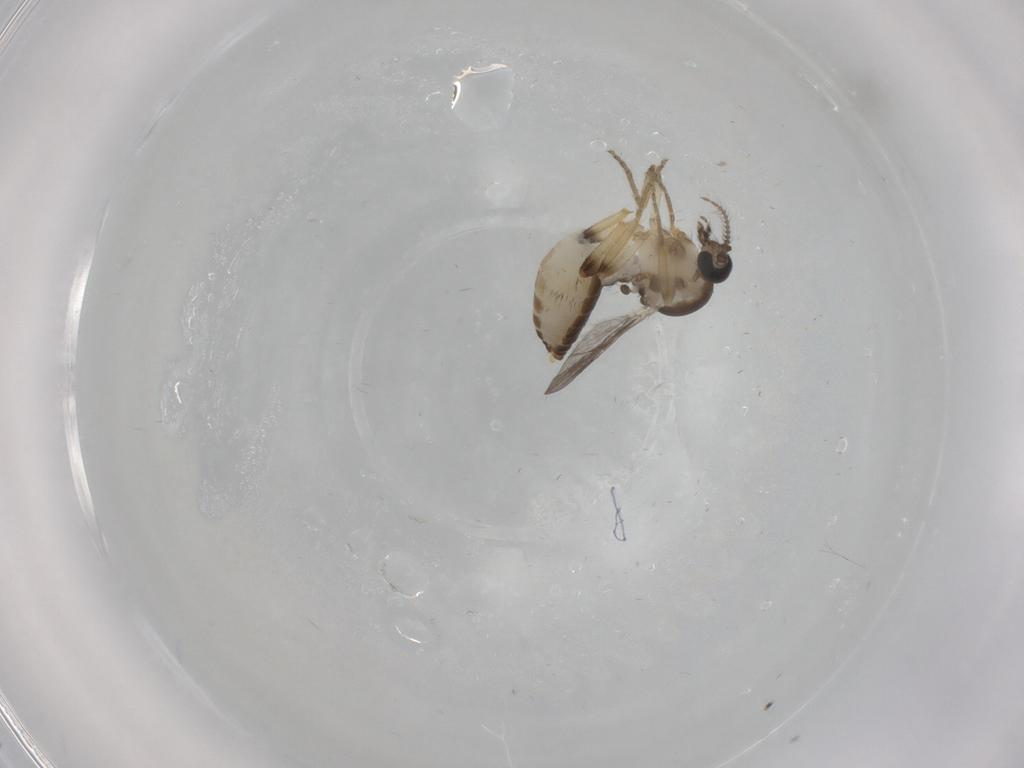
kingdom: Animalia
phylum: Arthropoda
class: Insecta
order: Diptera
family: Ceratopogonidae
